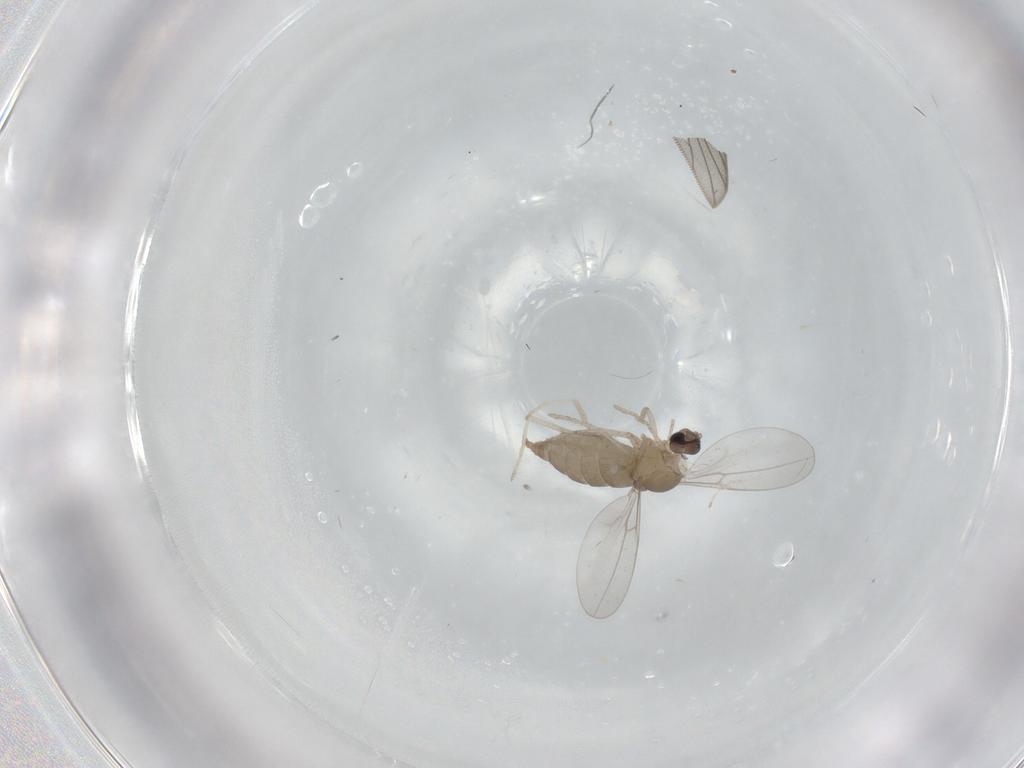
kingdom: Animalia
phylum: Arthropoda
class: Insecta
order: Diptera
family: Cecidomyiidae
